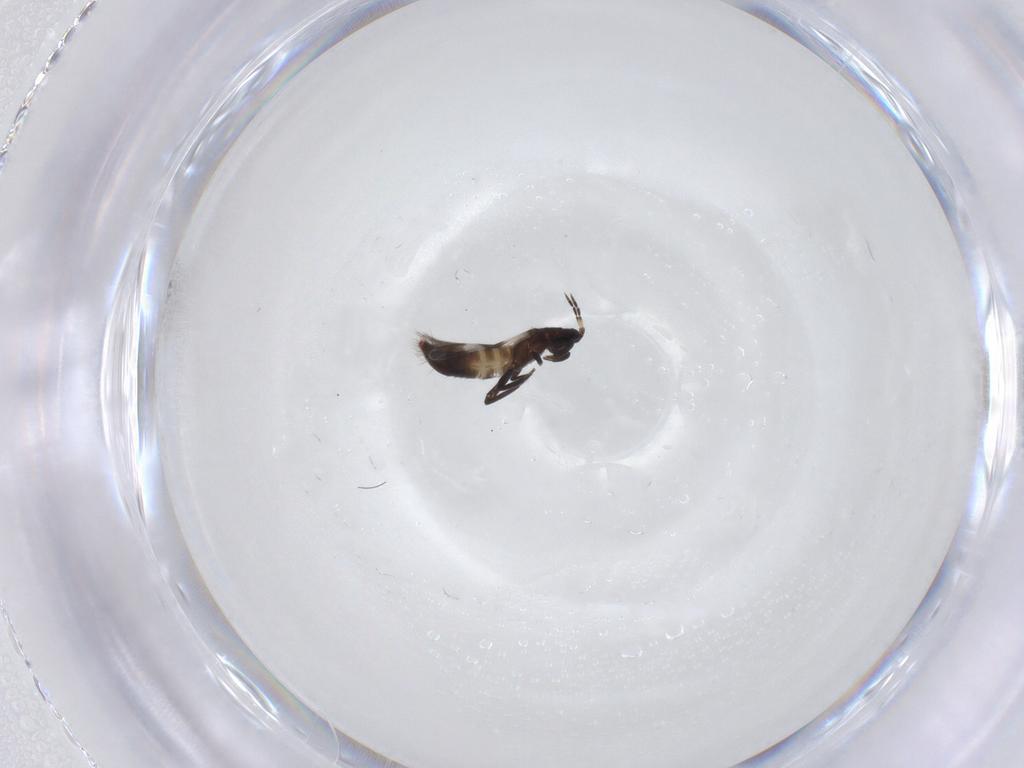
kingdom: Animalia
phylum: Arthropoda
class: Insecta
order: Thysanoptera
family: Aeolothripidae
